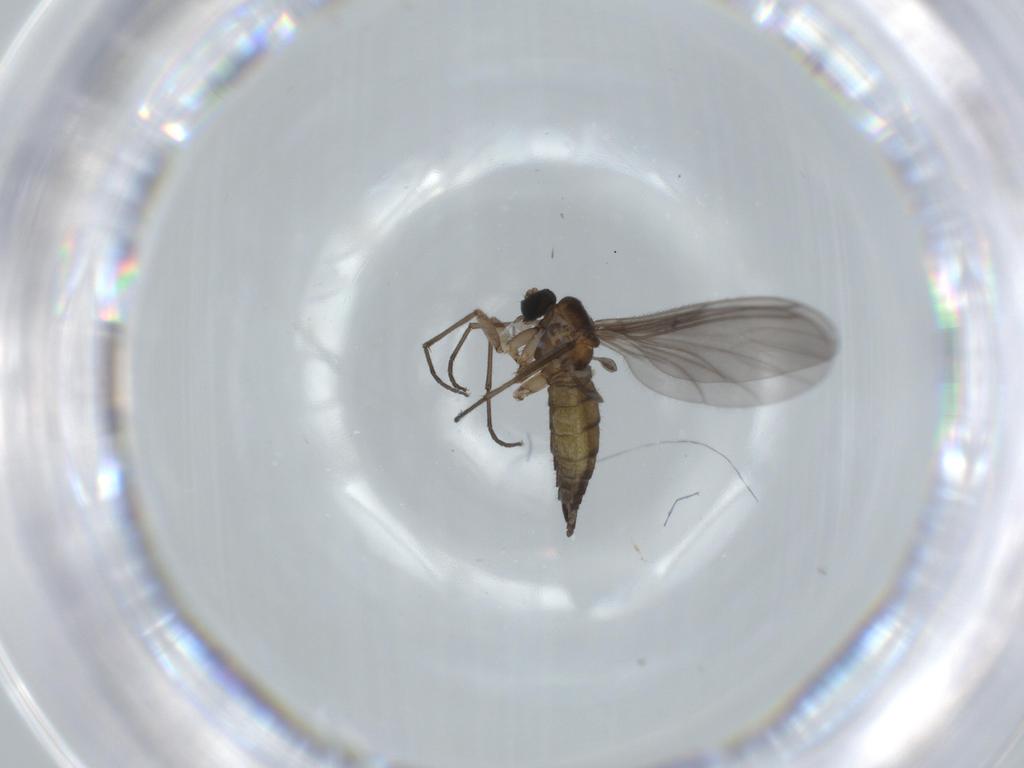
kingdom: Animalia
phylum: Arthropoda
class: Insecta
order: Diptera
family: Sciaridae
